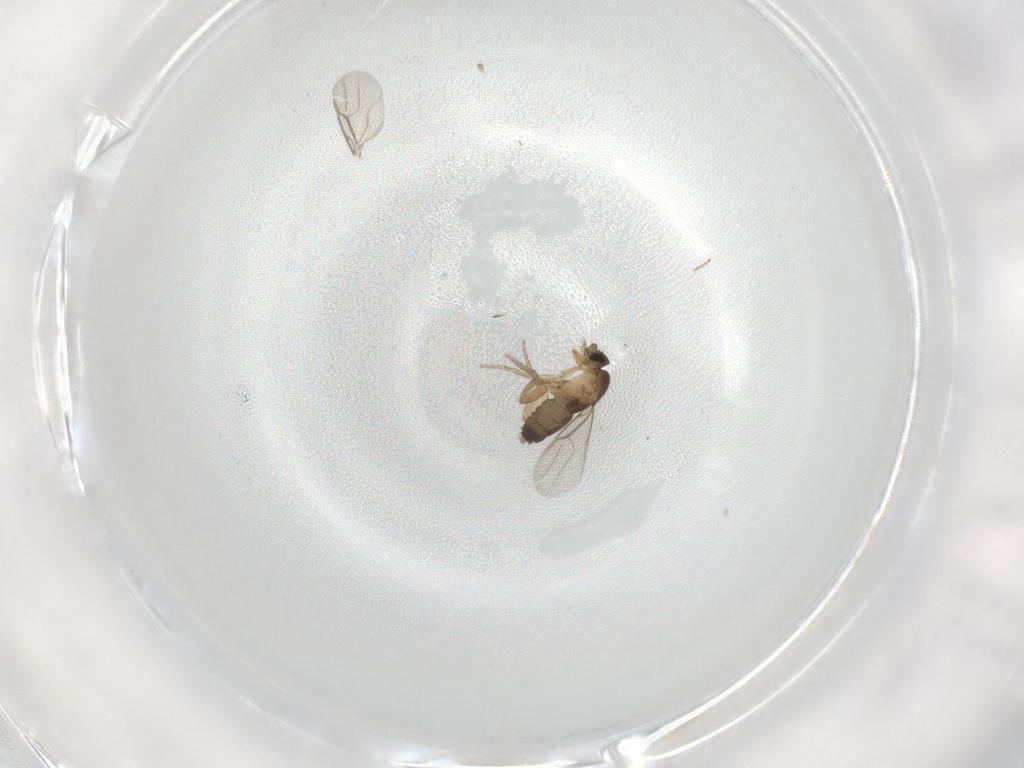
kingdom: Animalia
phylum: Arthropoda
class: Insecta
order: Diptera
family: Phoridae
